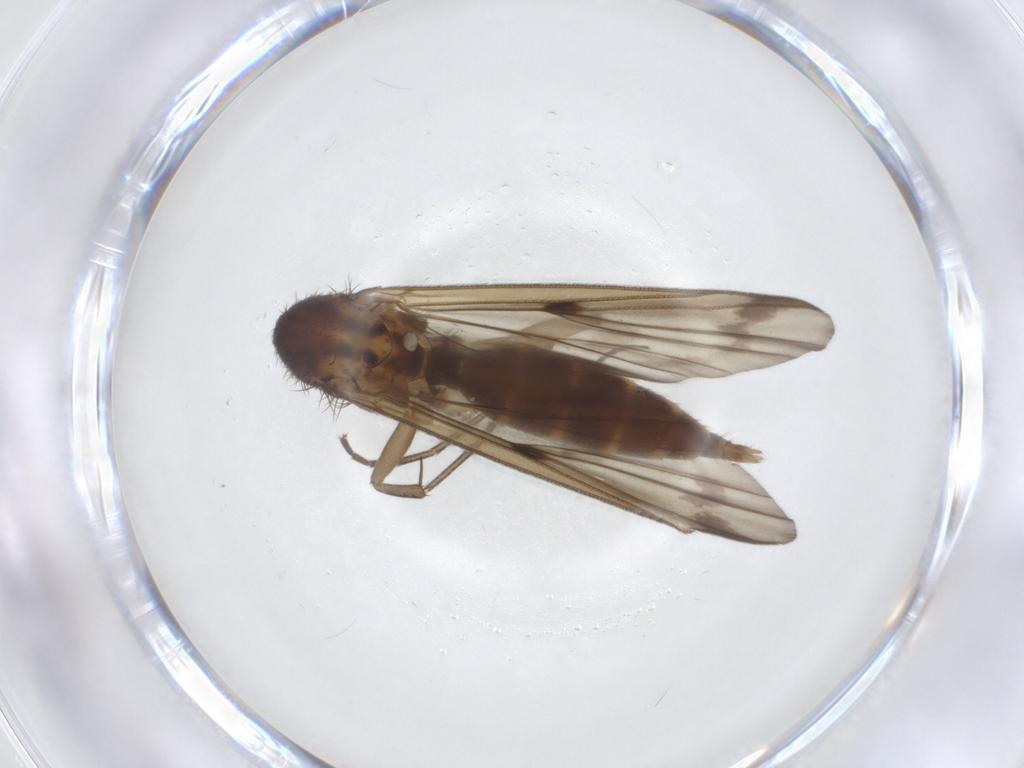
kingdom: Animalia
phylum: Arthropoda
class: Insecta
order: Diptera
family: Mycetophilidae
